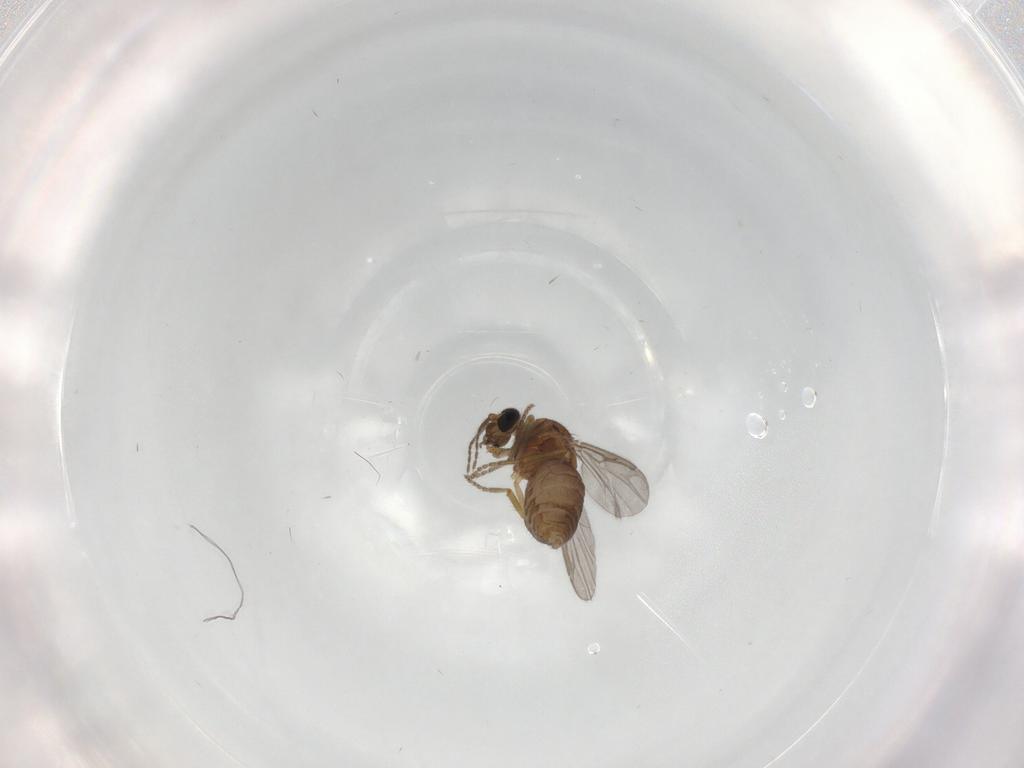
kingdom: Animalia
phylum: Arthropoda
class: Insecta
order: Diptera
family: Ceratopogonidae
